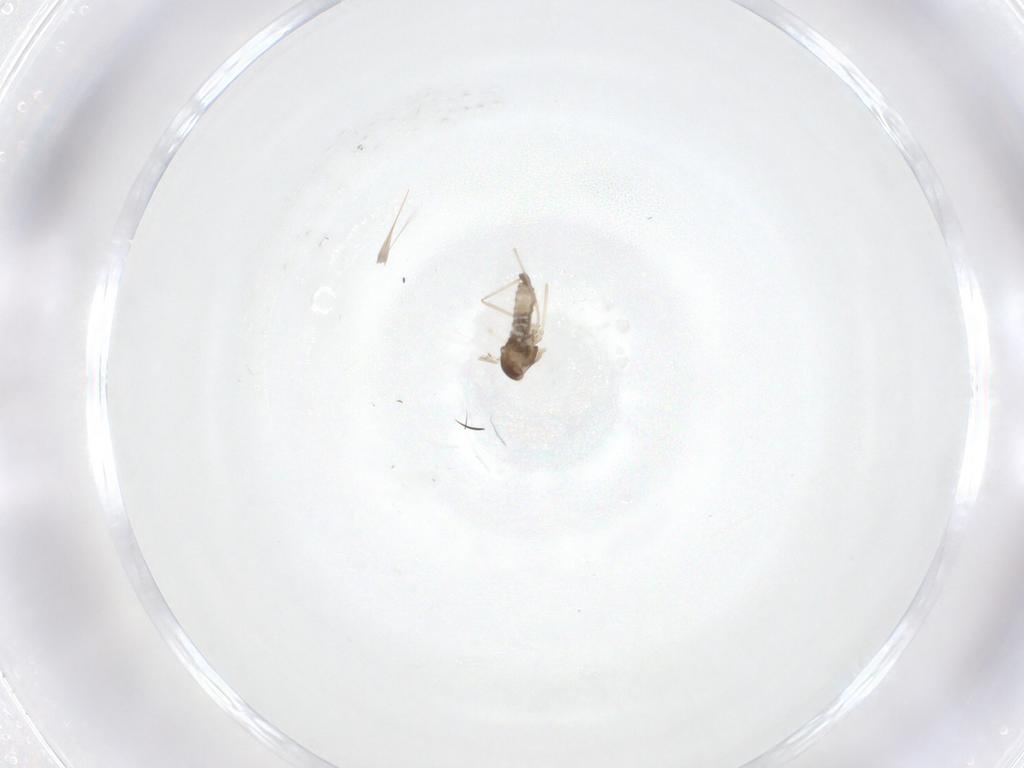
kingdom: Animalia
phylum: Arthropoda
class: Insecta
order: Diptera
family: Cecidomyiidae
